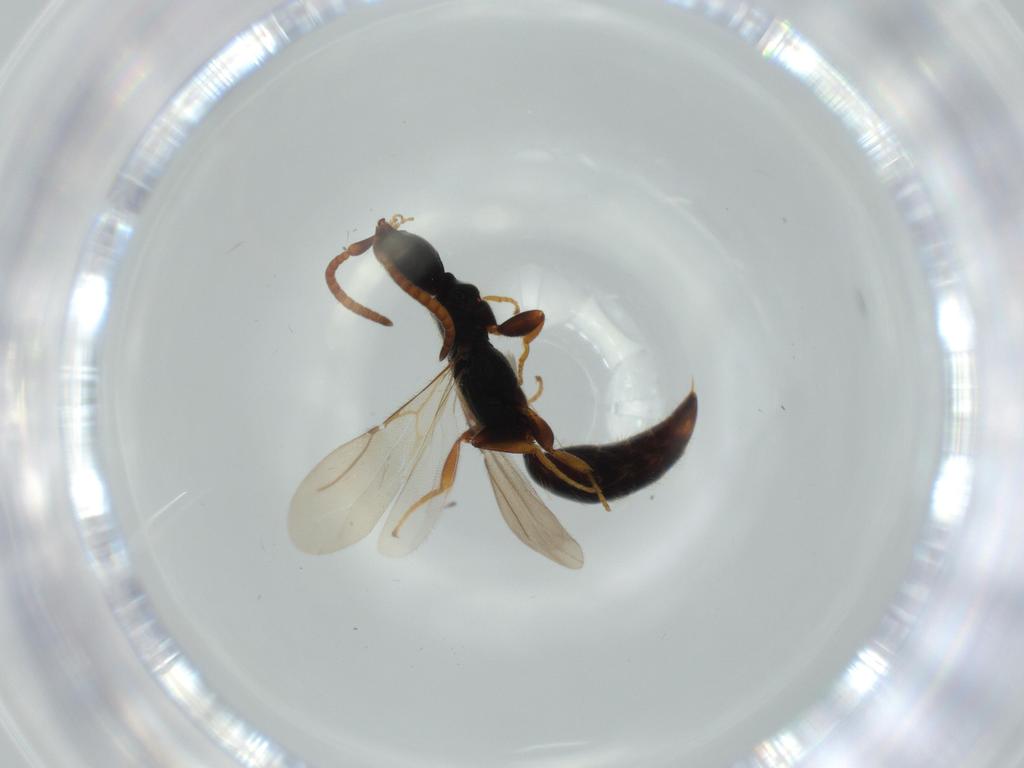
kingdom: Animalia
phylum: Arthropoda
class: Insecta
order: Hymenoptera
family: Bethylidae
